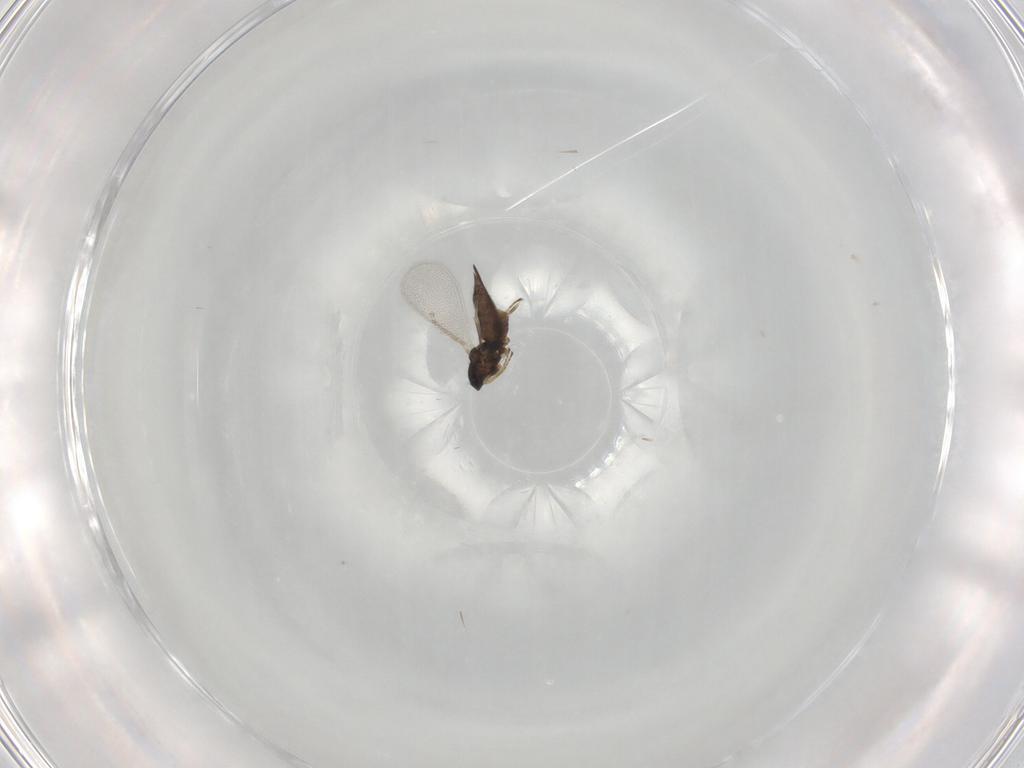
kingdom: Animalia
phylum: Arthropoda
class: Insecta
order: Hymenoptera
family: Eulophidae
